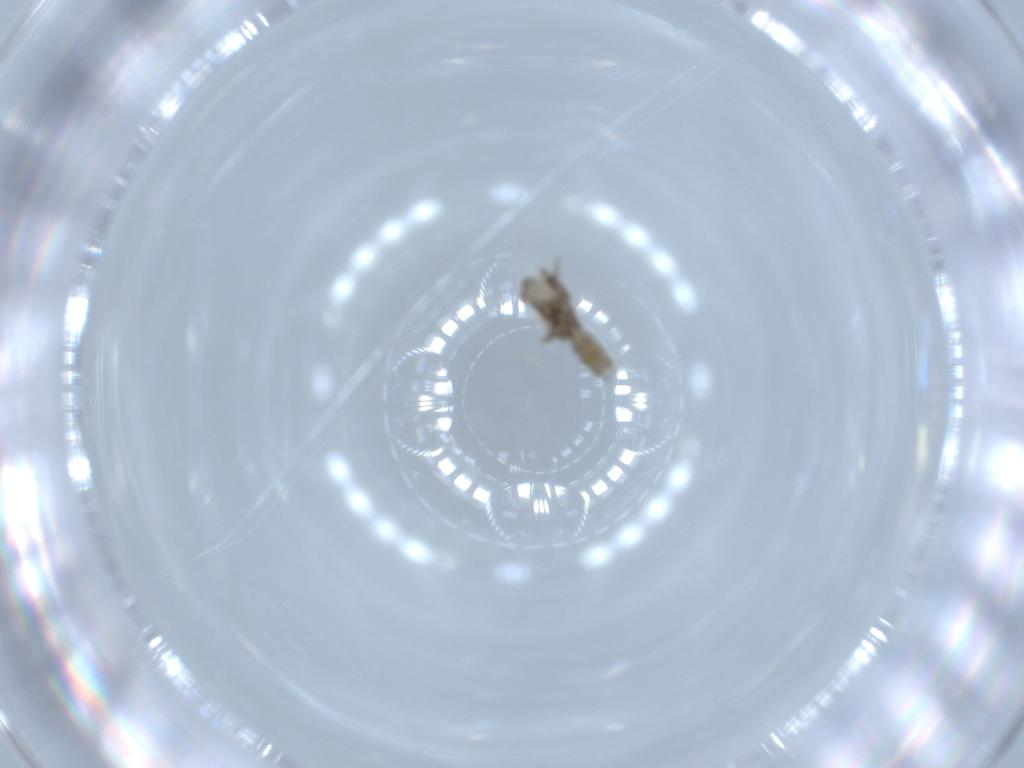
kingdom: Animalia
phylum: Arthropoda
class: Insecta
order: Diptera
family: Cecidomyiidae
